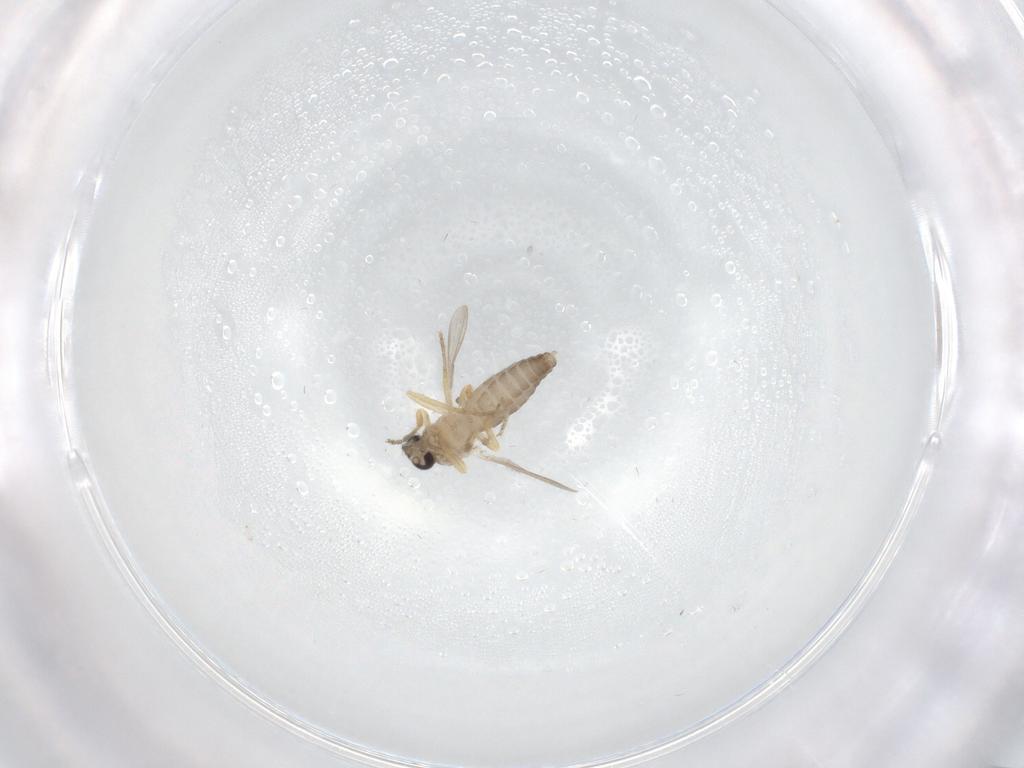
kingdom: Animalia
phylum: Arthropoda
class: Insecta
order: Diptera
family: Ceratopogonidae
